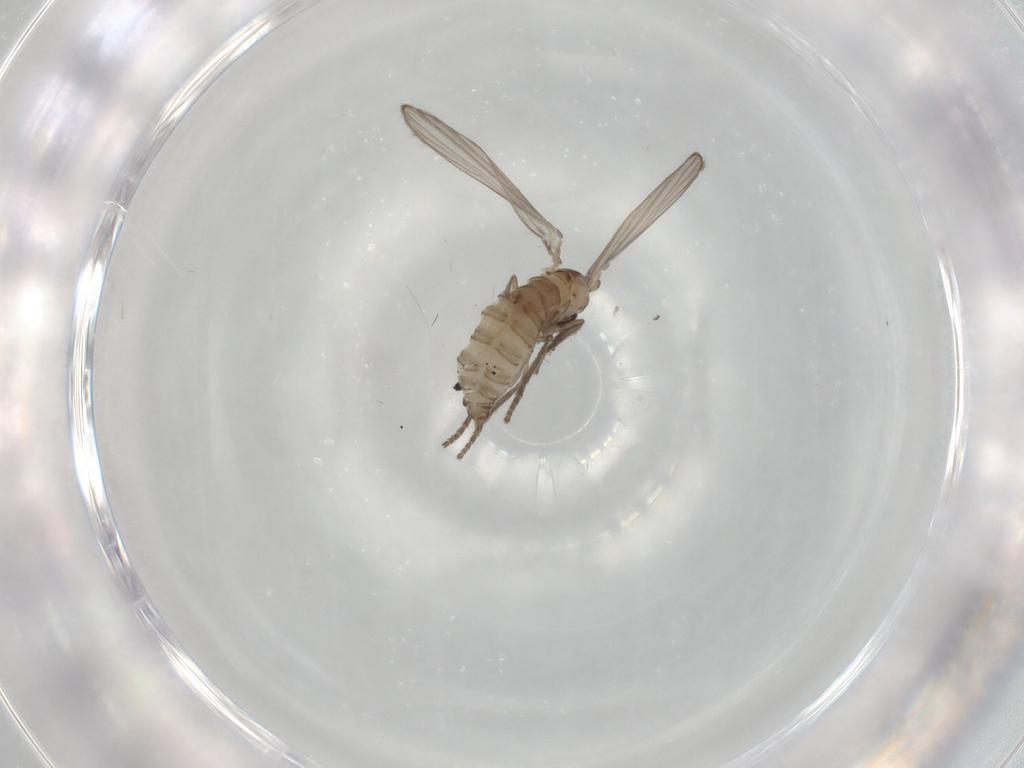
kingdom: Animalia
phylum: Arthropoda
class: Insecta
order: Diptera
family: Psychodidae
